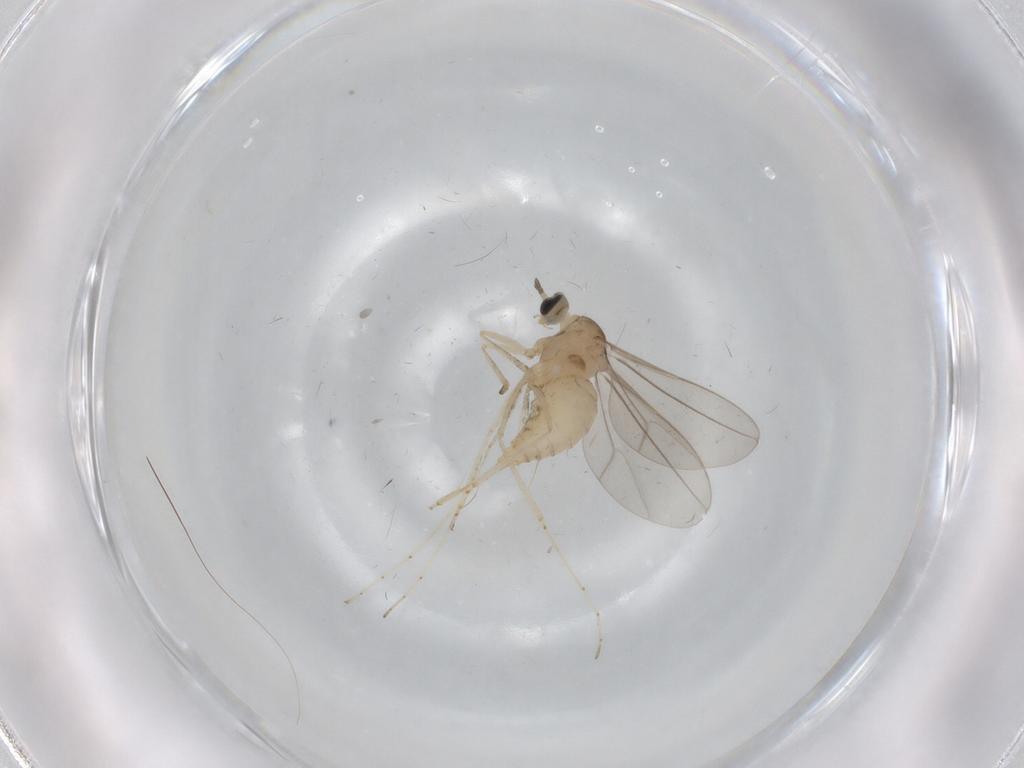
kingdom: Animalia
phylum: Arthropoda
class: Insecta
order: Diptera
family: Cecidomyiidae
